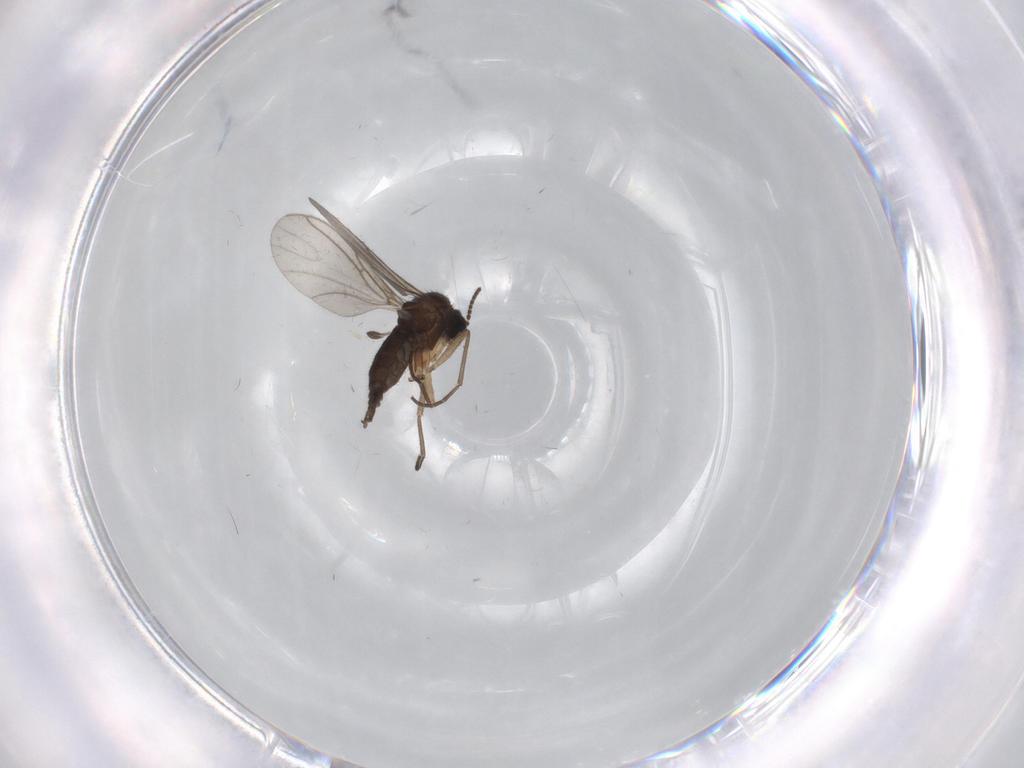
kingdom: Animalia
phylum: Arthropoda
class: Insecta
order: Diptera
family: Sciaridae
